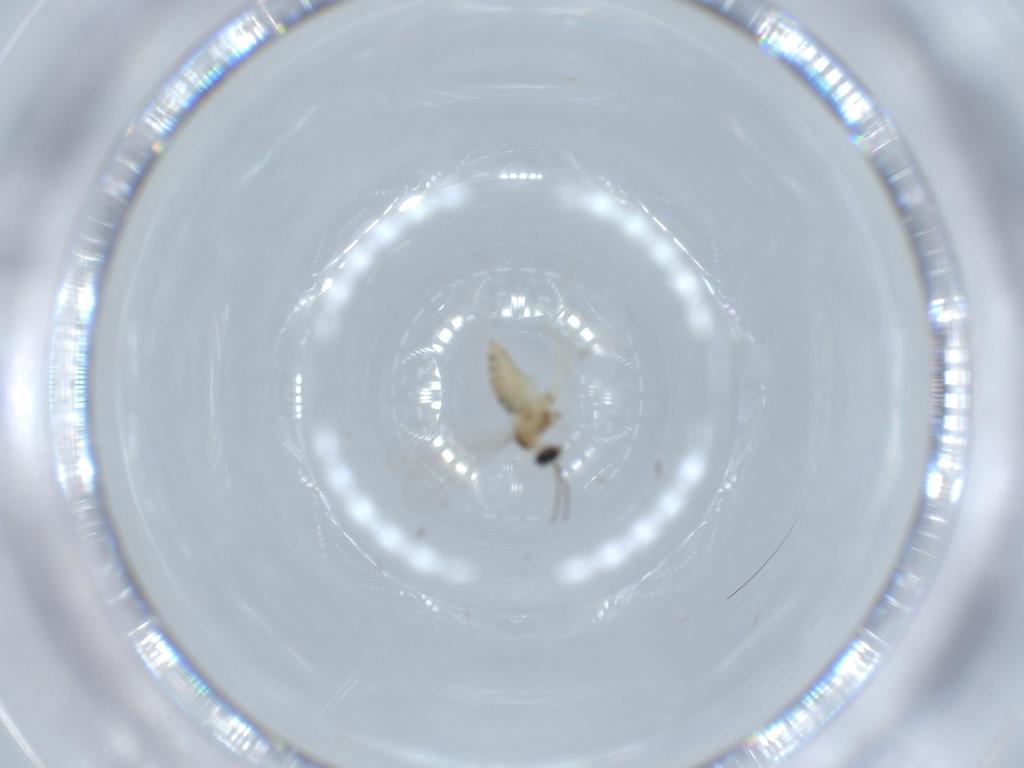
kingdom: Animalia
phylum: Arthropoda
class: Insecta
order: Diptera
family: Cecidomyiidae
